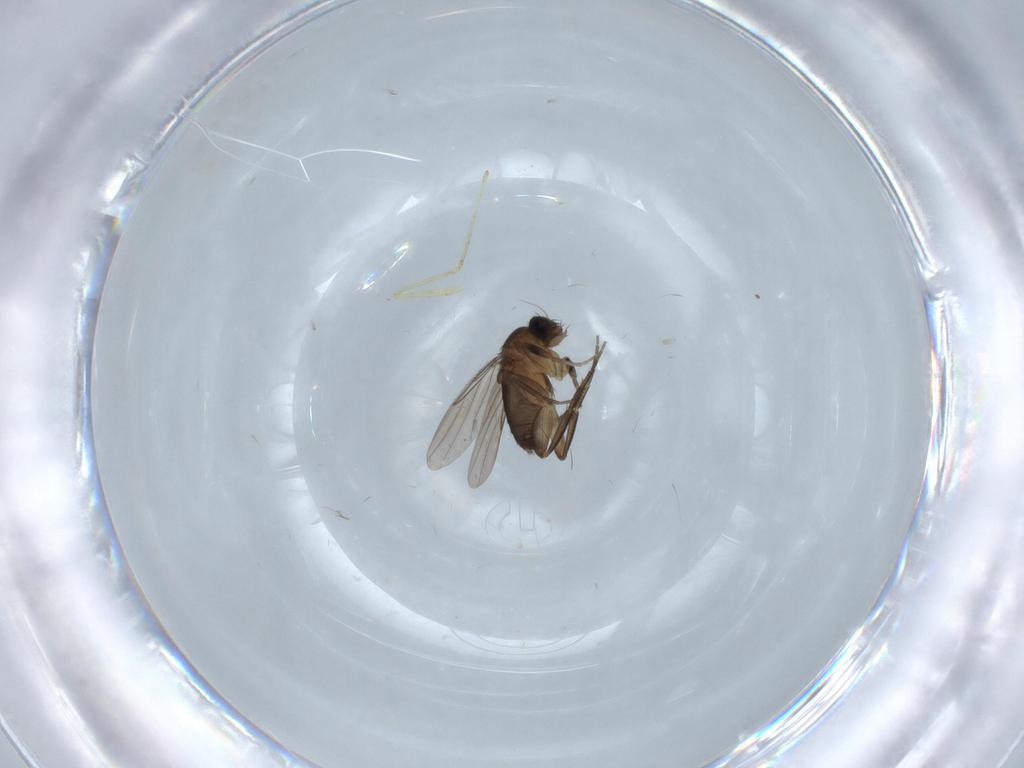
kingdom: Animalia
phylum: Arthropoda
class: Insecta
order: Diptera
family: Phoridae
